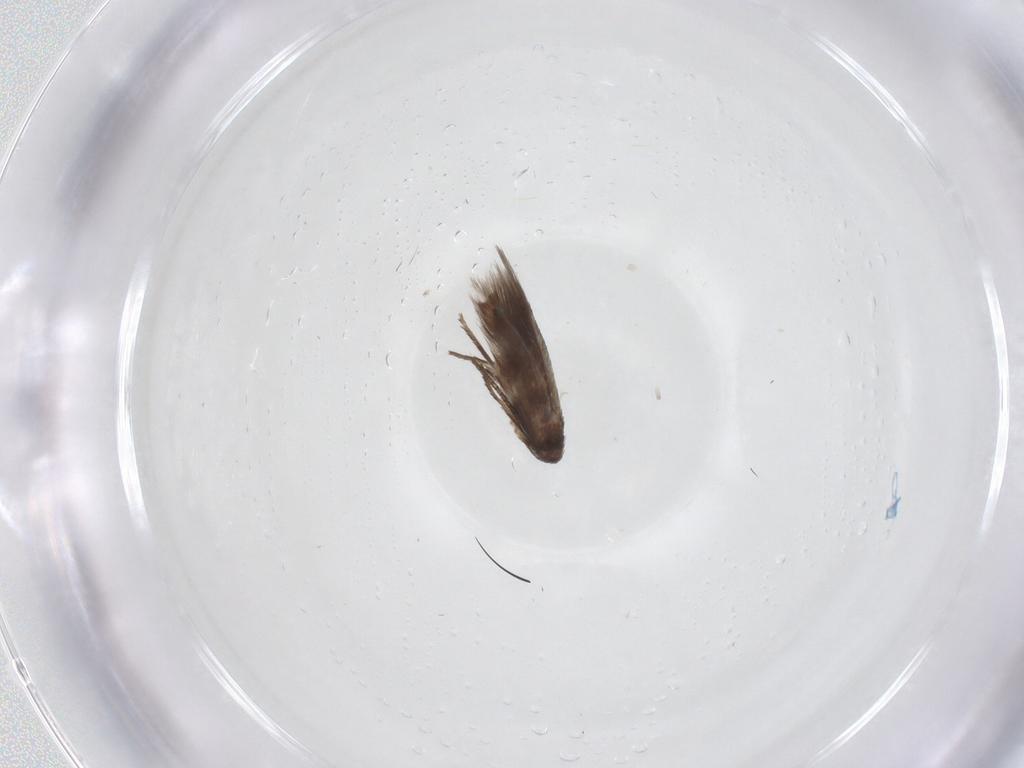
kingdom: Animalia
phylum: Arthropoda
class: Insecta
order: Lepidoptera
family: Lyonetiidae
